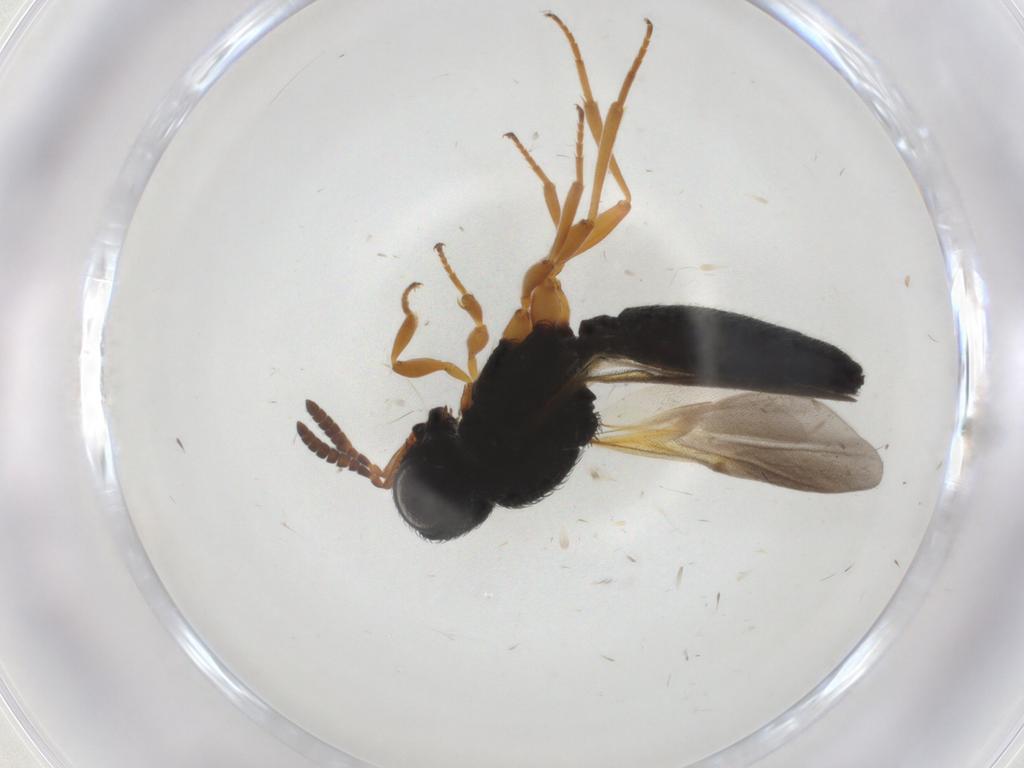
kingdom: Animalia
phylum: Arthropoda
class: Insecta
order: Hymenoptera
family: Mymaridae
